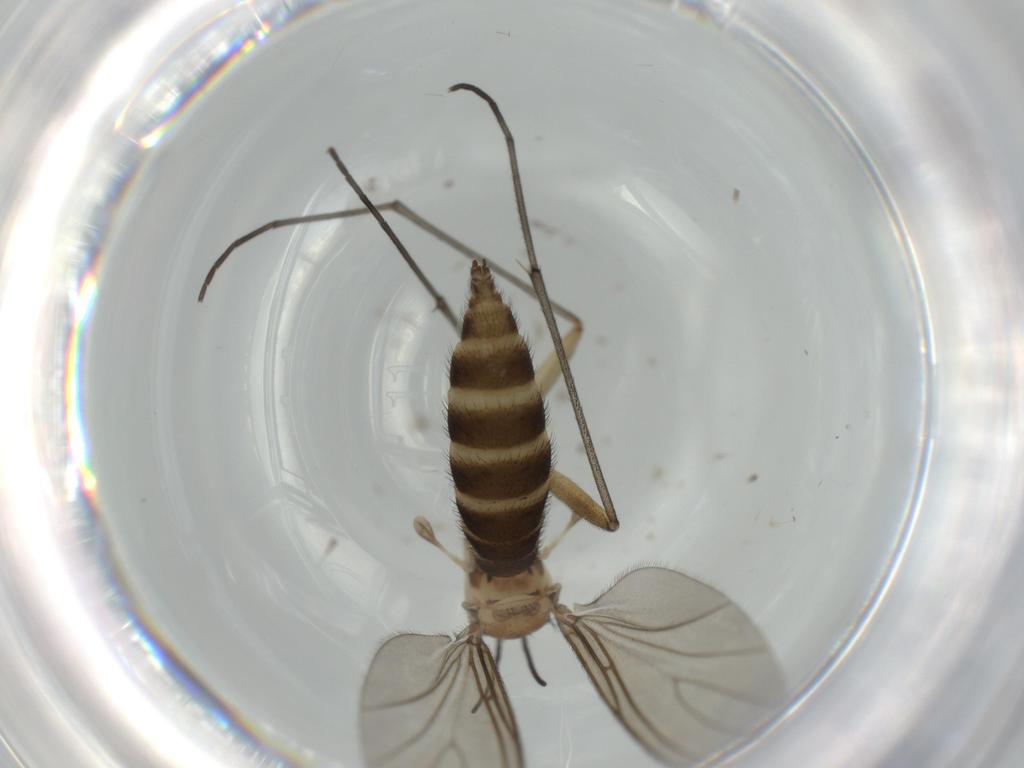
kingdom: Animalia
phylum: Arthropoda
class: Insecta
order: Diptera
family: Sciaridae
